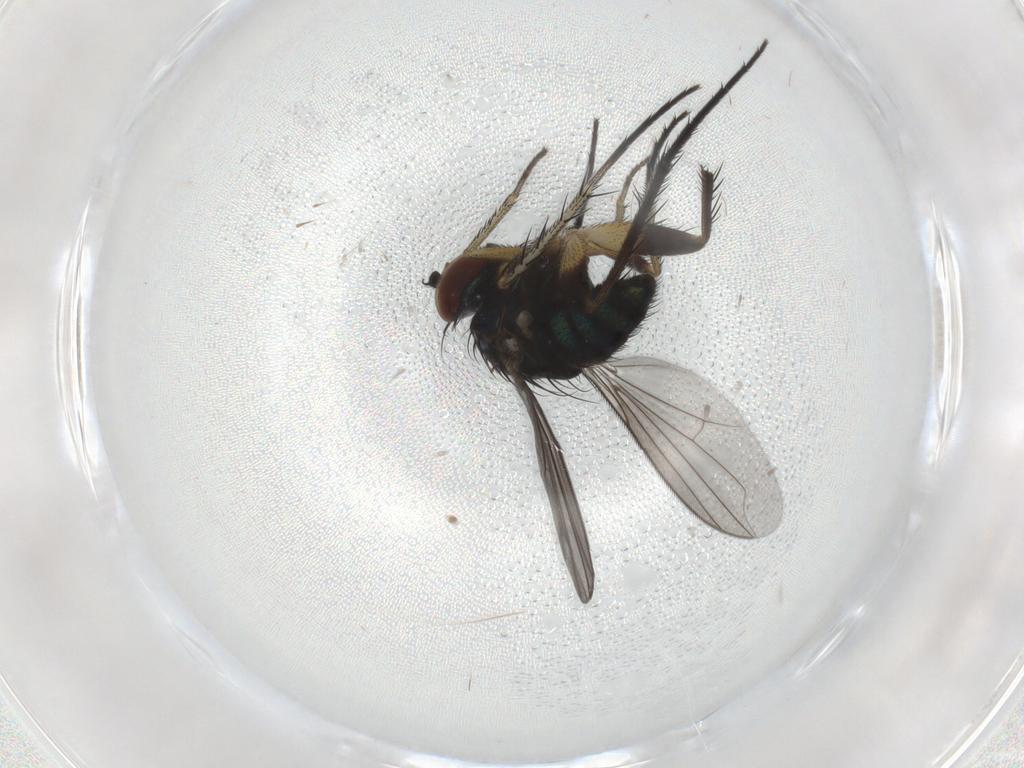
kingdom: Animalia
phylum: Arthropoda
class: Insecta
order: Diptera
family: Dolichopodidae
